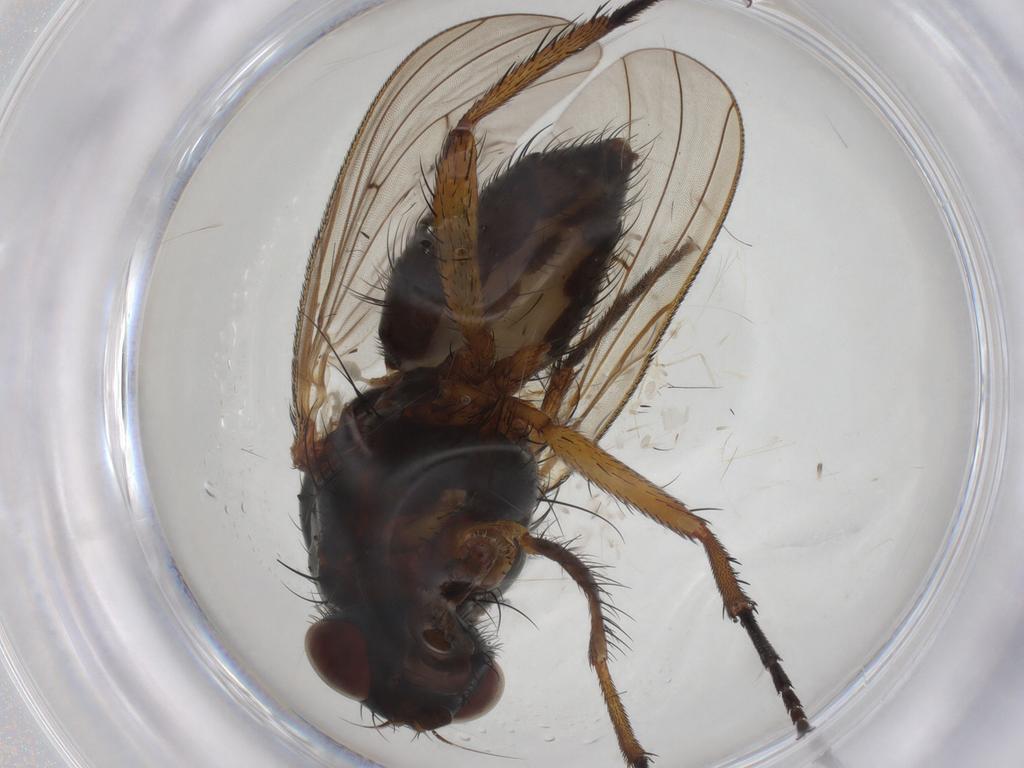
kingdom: Animalia
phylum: Arthropoda
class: Insecta
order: Diptera
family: Anthomyiidae
